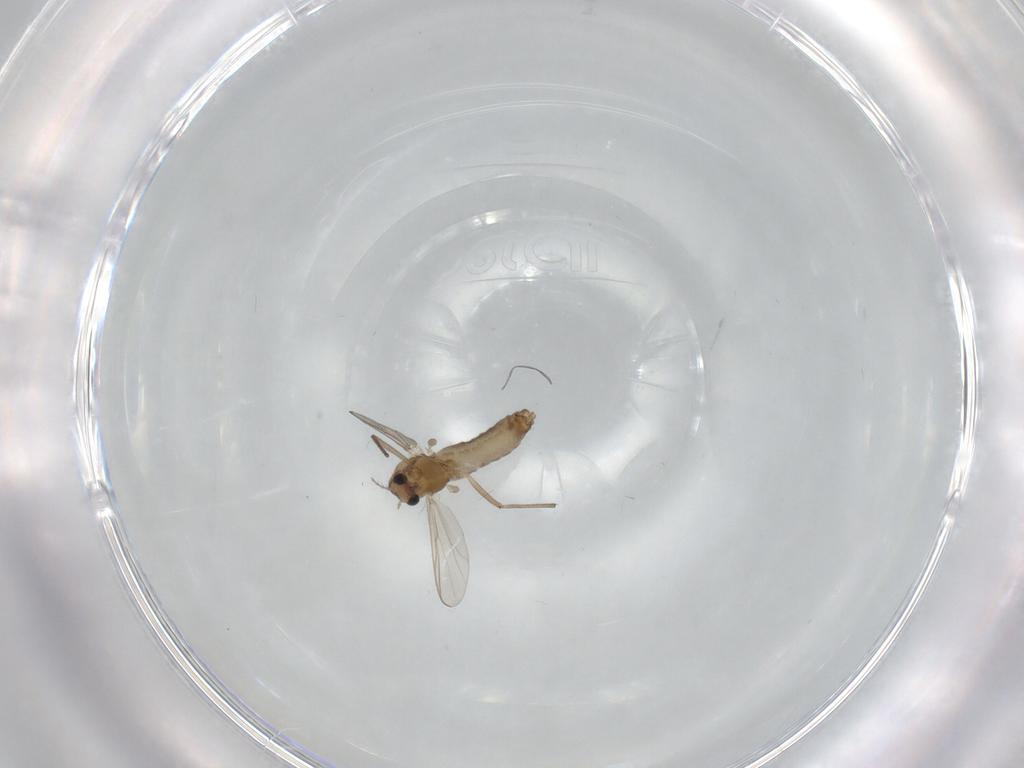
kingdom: Animalia
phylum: Arthropoda
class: Insecta
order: Diptera
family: Chironomidae
